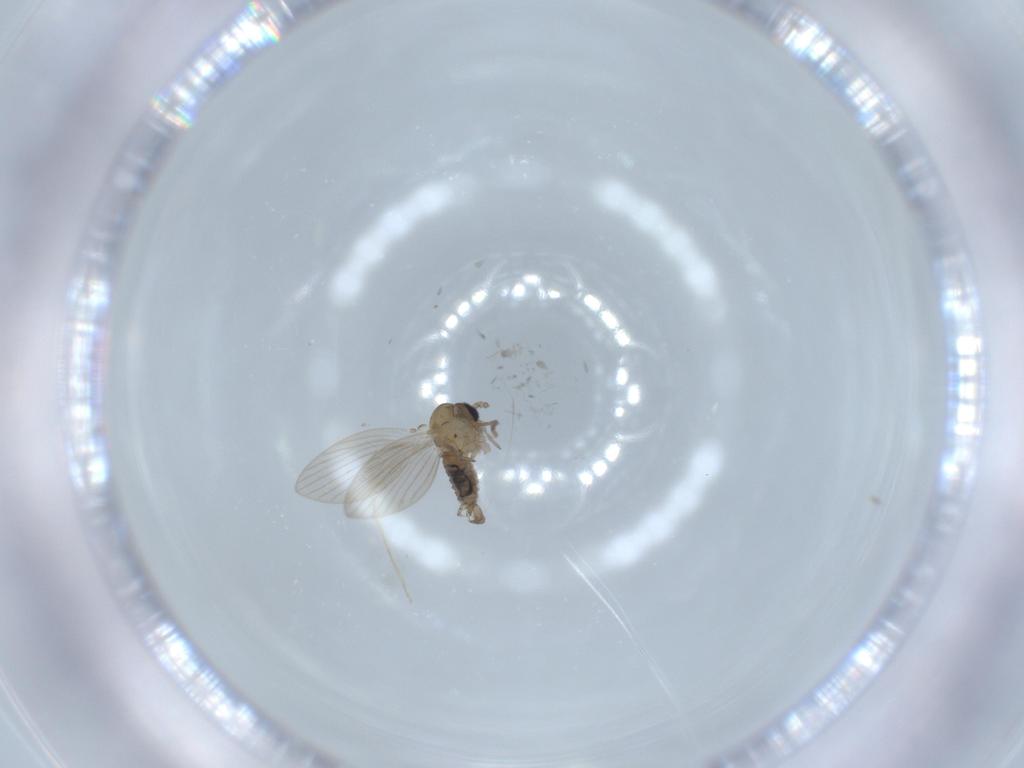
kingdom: Animalia
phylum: Arthropoda
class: Insecta
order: Diptera
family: Psychodidae
